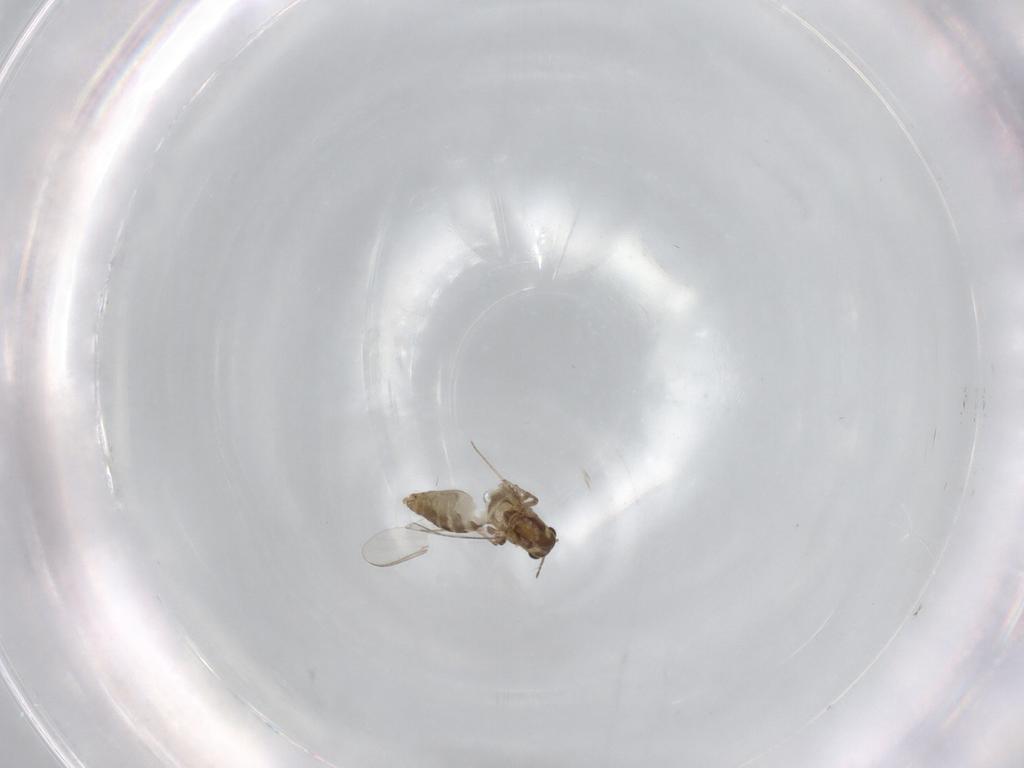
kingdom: Animalia
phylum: Arthropoda
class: Insecta
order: Diptera
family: Chironomidae
